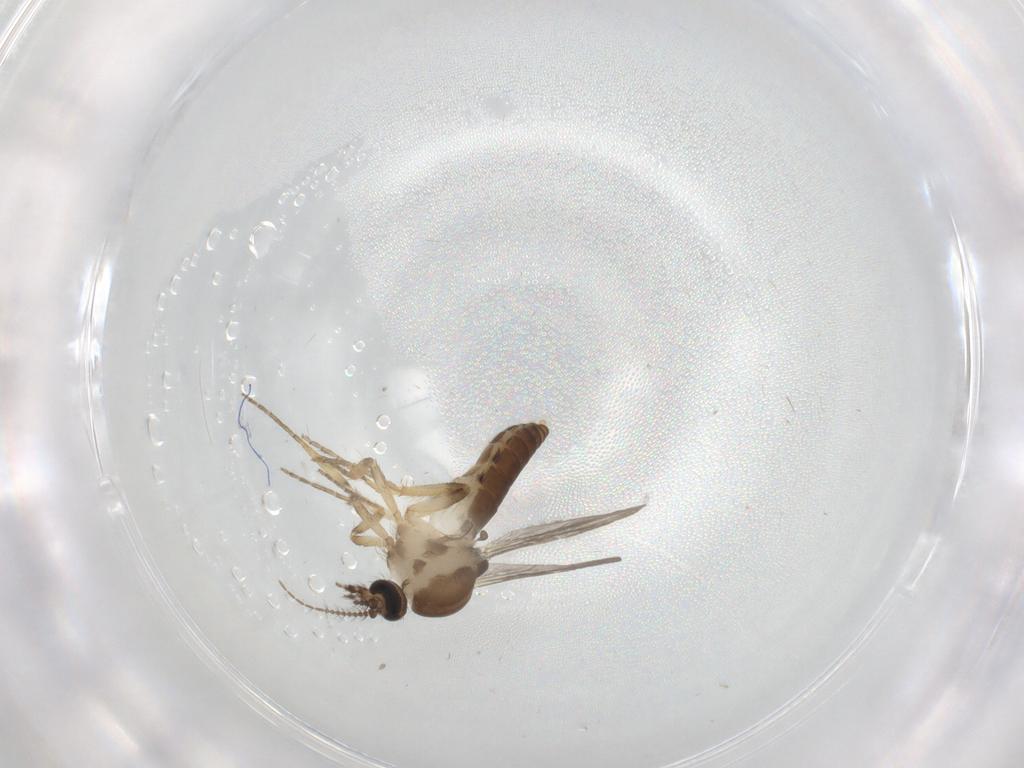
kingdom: Animalia
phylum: Arthropoda
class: Insecta
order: Diptera
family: Ceratopogonidae
